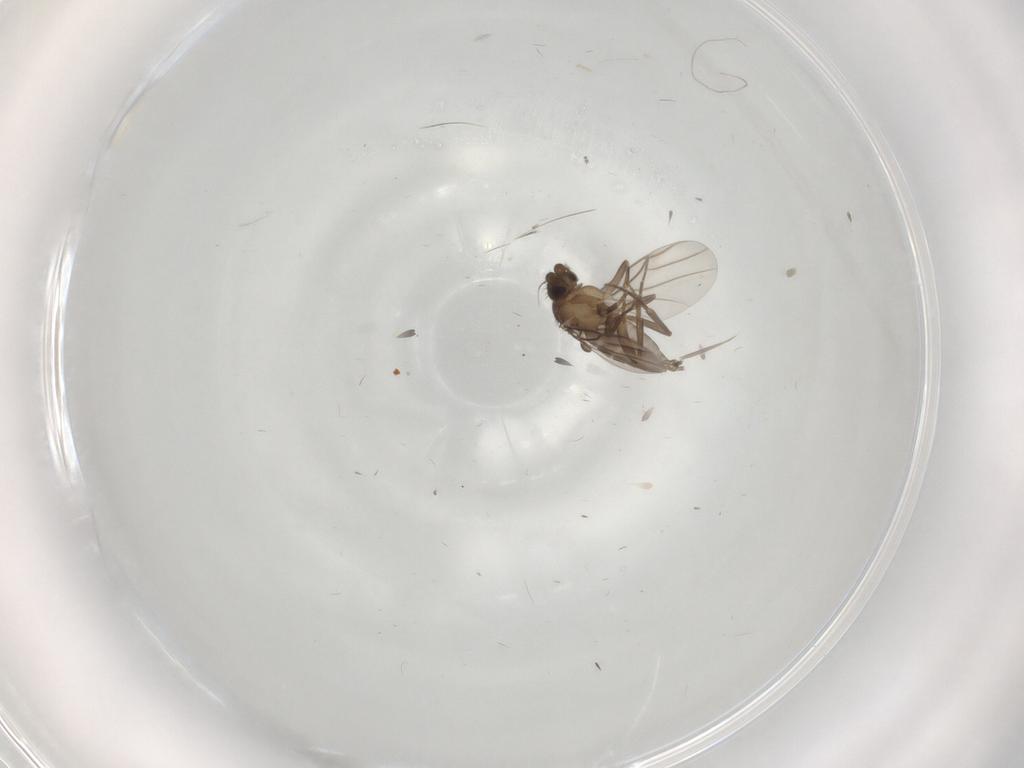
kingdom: Animalia
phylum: Arthropoda
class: Insecta
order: Diptera
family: Phoridae
